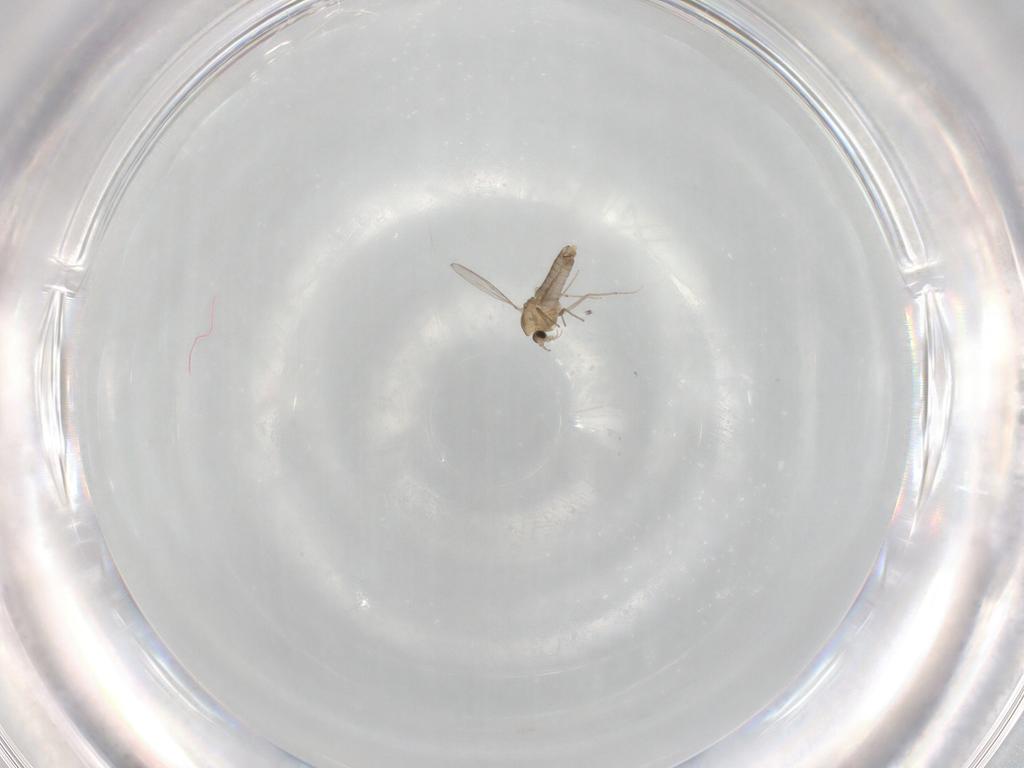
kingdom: Animalia
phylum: Arthropoda
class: Insecta
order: Diptera
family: Chironomidae
